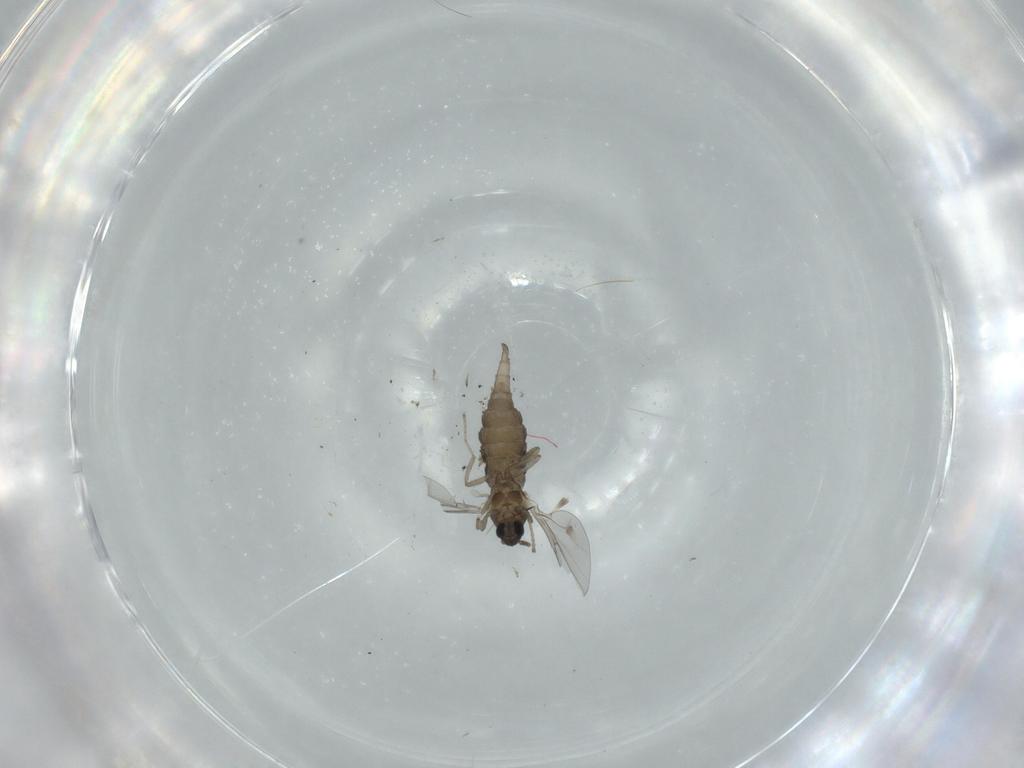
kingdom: Animalia
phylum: Arthropoda
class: Insecta
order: Diptera
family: Cecidomyiidae
